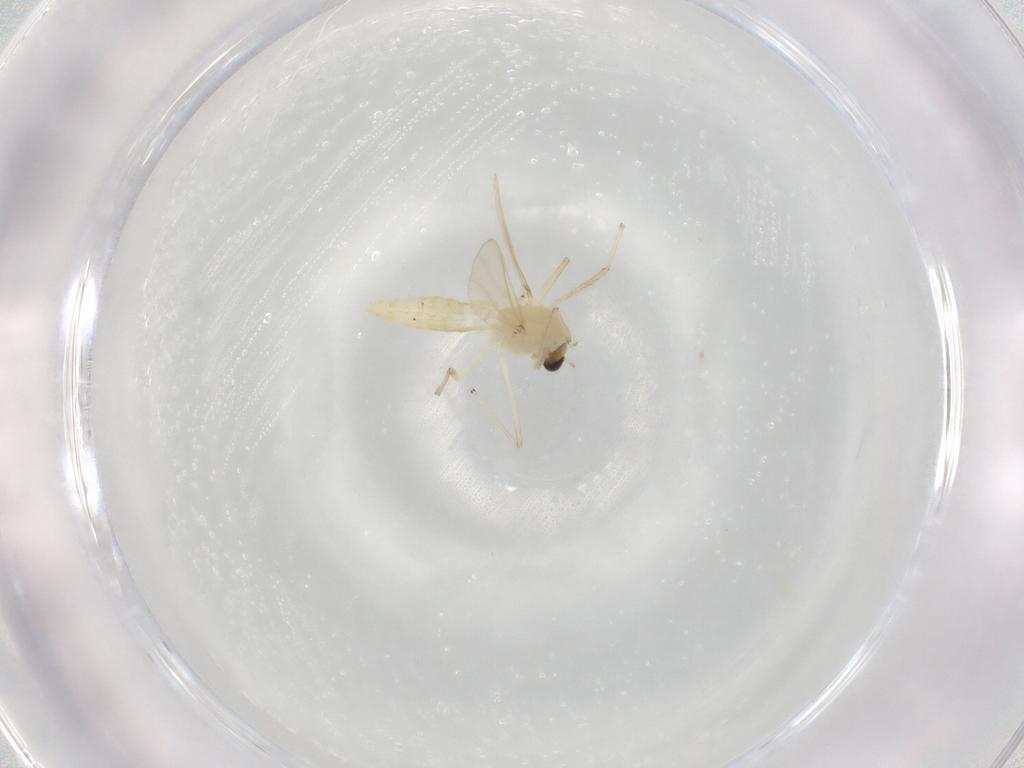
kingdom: Animalia
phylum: Arthropoda
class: Insecta
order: Diptera
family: Chironomidae
